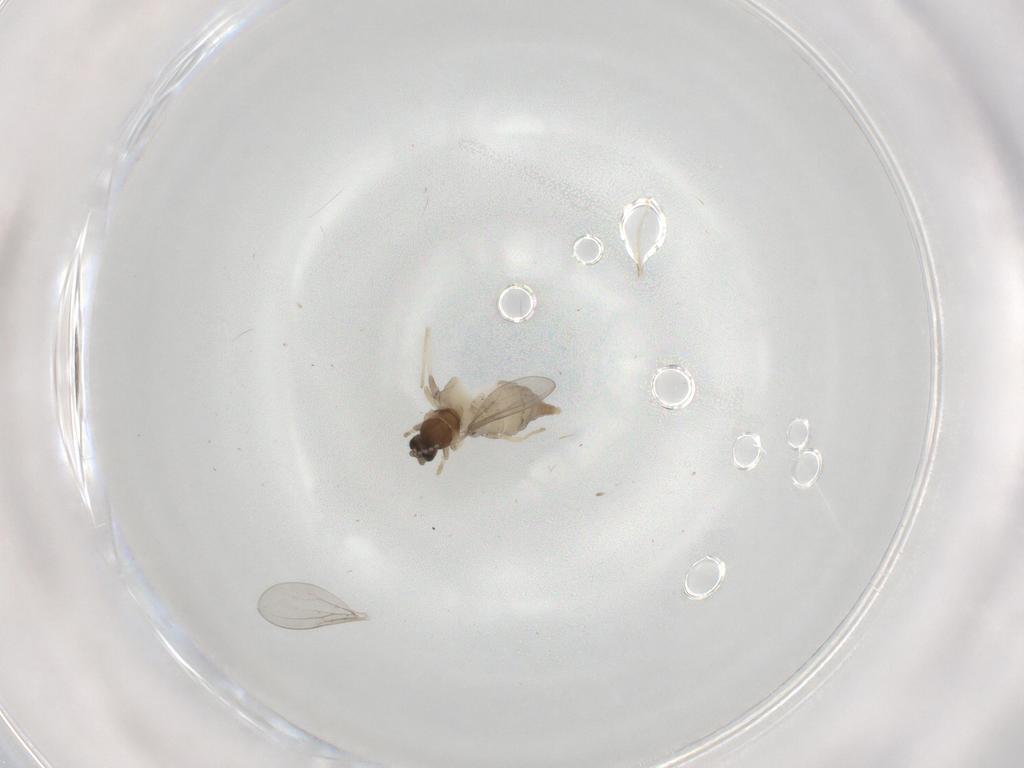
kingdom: Animalia
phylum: Arthropoda
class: Insecta
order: Diptera
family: Cecidomyiidae
